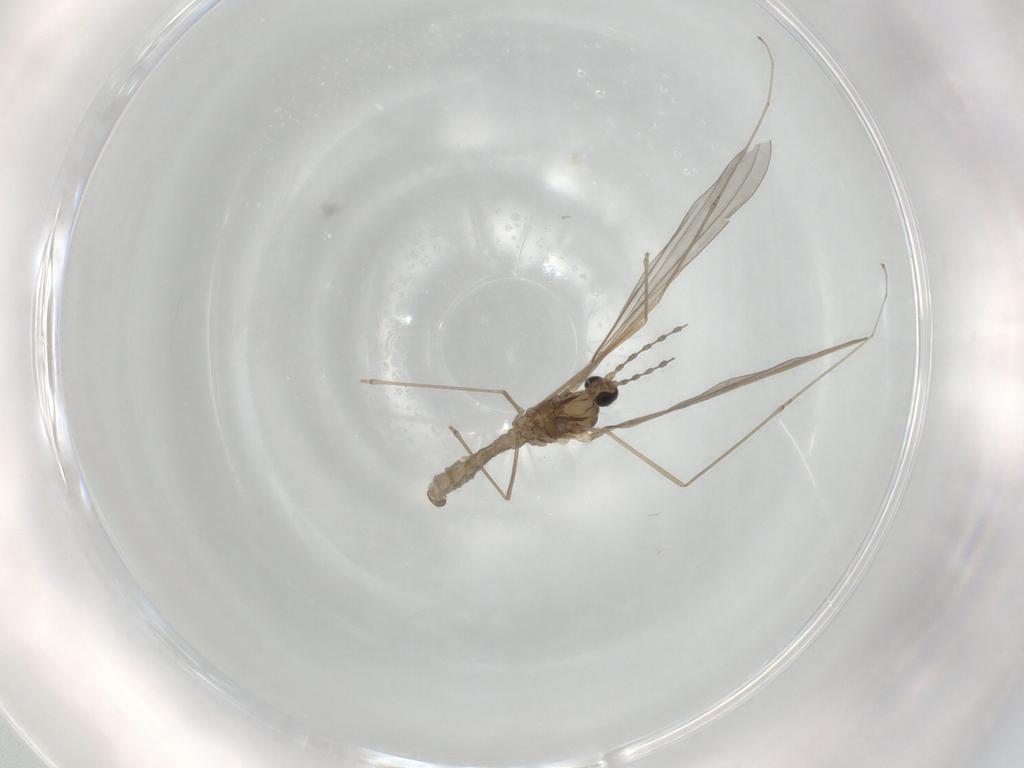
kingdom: Animalia
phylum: Arthropoda
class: Insecta
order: Diptera
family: Cecidomyiidae
